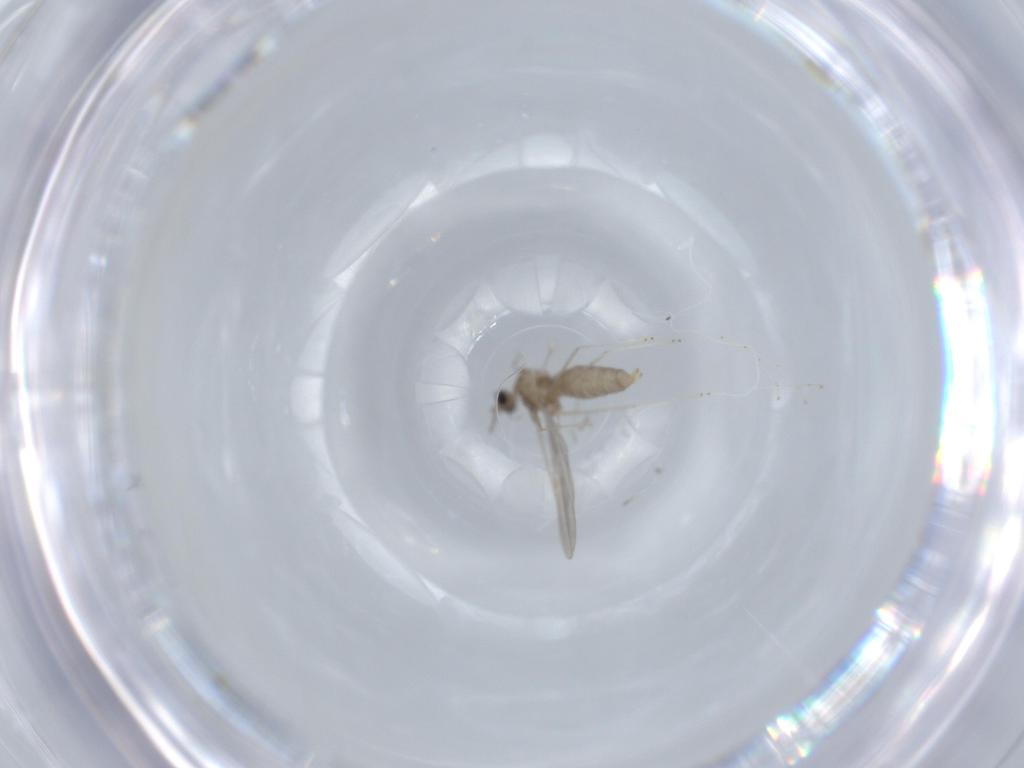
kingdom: Animalia
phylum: Arthropoda
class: Insecta
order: Diptera
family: Cecidomyiidae
